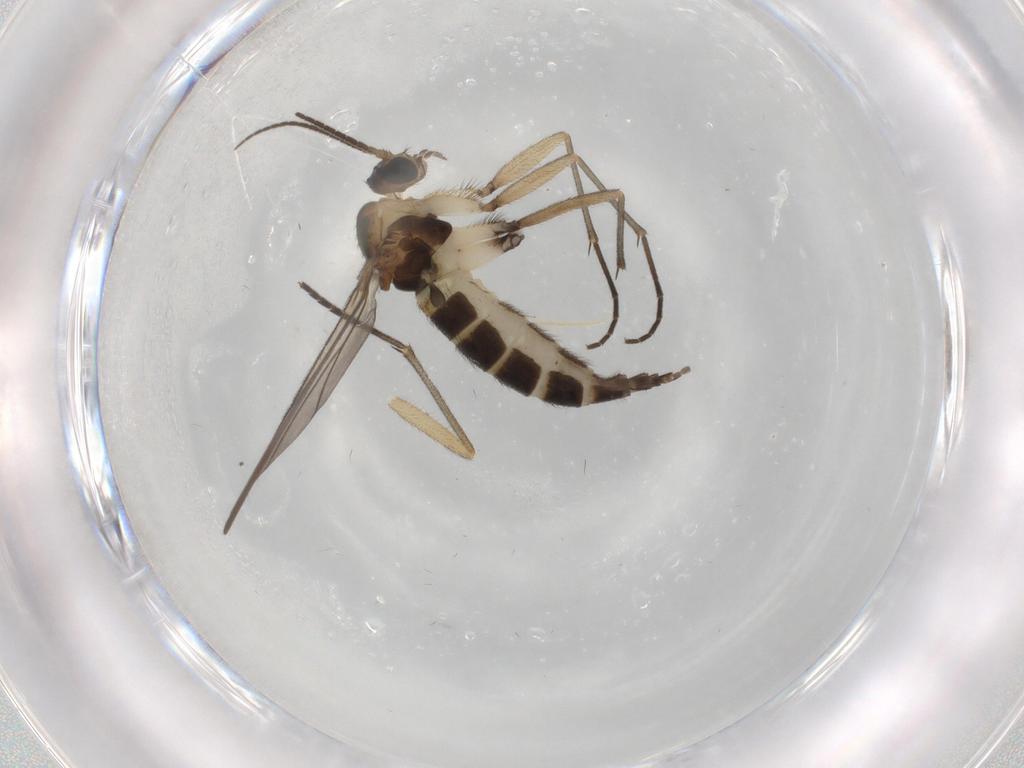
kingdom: Animalia
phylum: Arthropoda
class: Insecta
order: Diptera
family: Sciaridae
